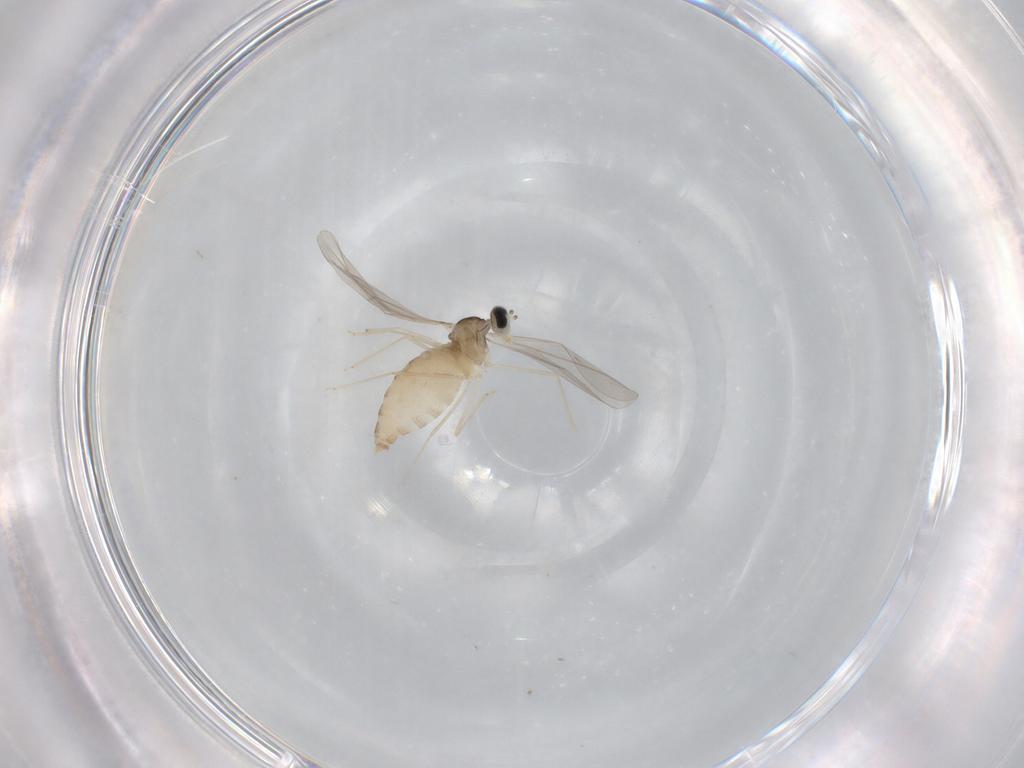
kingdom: Animalia
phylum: Arthropoda
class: Insecta
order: Diptera
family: Cecidomyiidae
